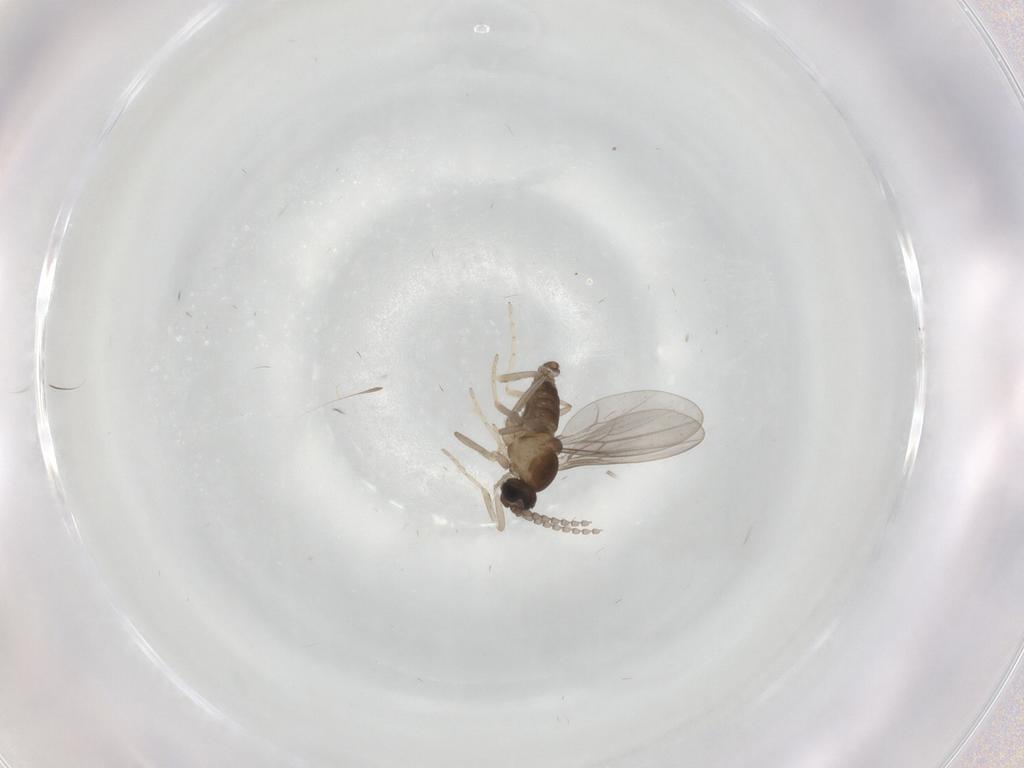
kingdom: Animalia
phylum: Arthropoda
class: Insecta
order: Diptera
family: Cecidomyiidae
